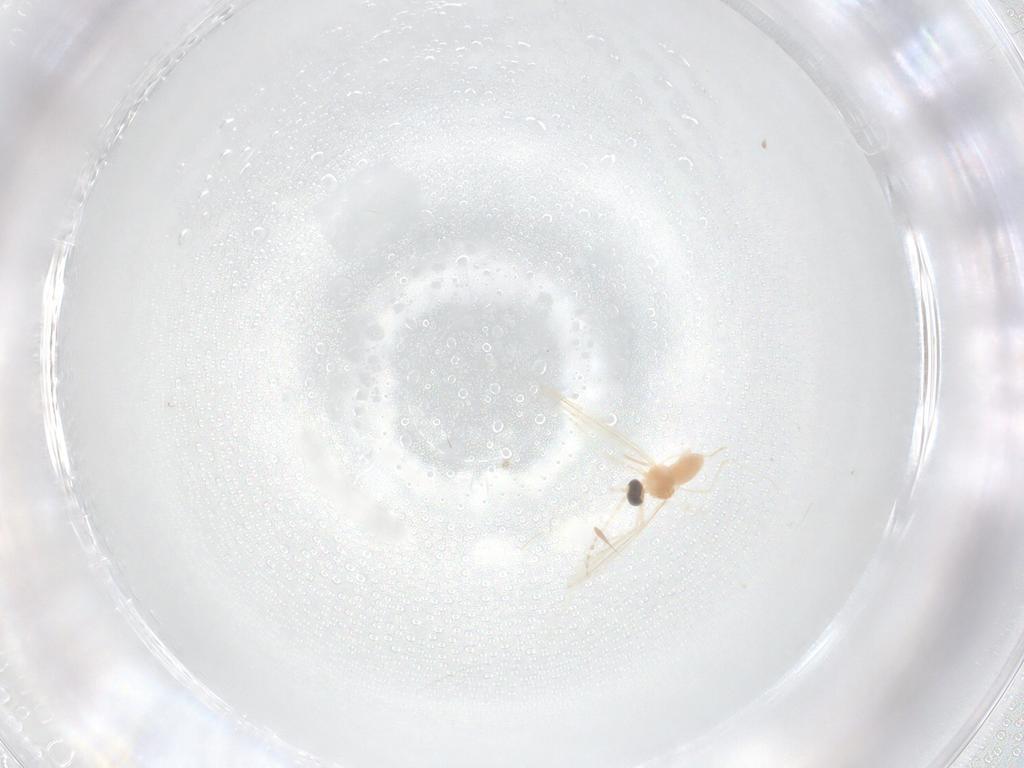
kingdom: Animalia
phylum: Arthropoda
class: Insecta
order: Diptera
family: Cecidomyiidae
